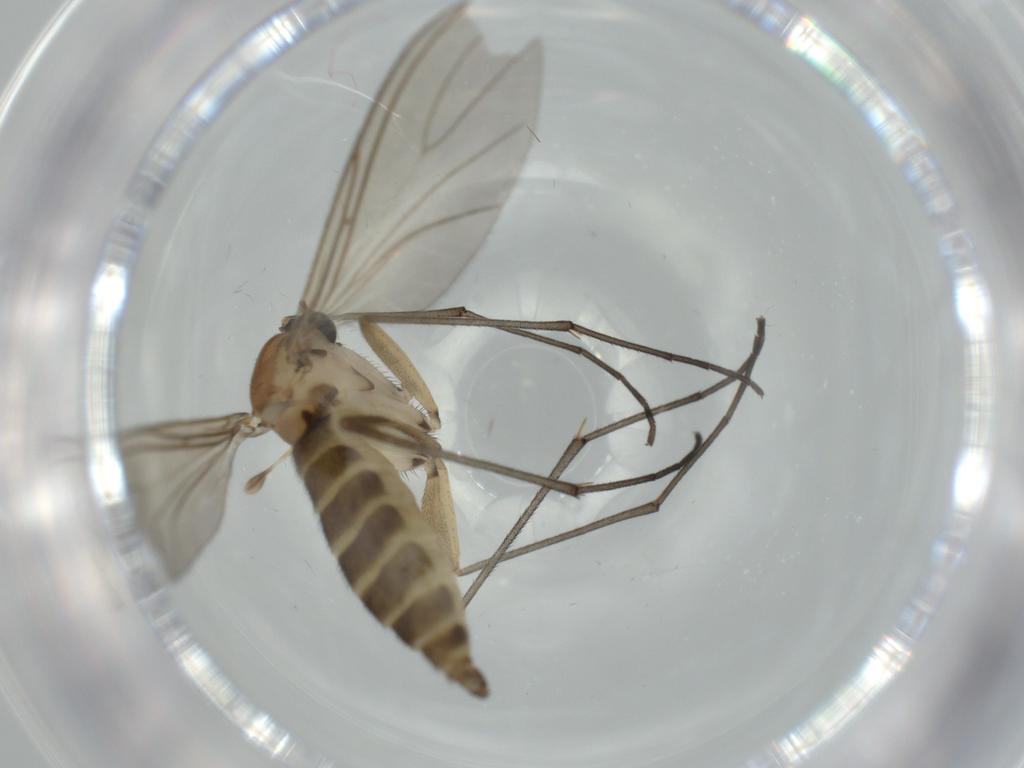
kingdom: Animalia
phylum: Arthropoda
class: Insecta
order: Diptera
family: Sciaridae
